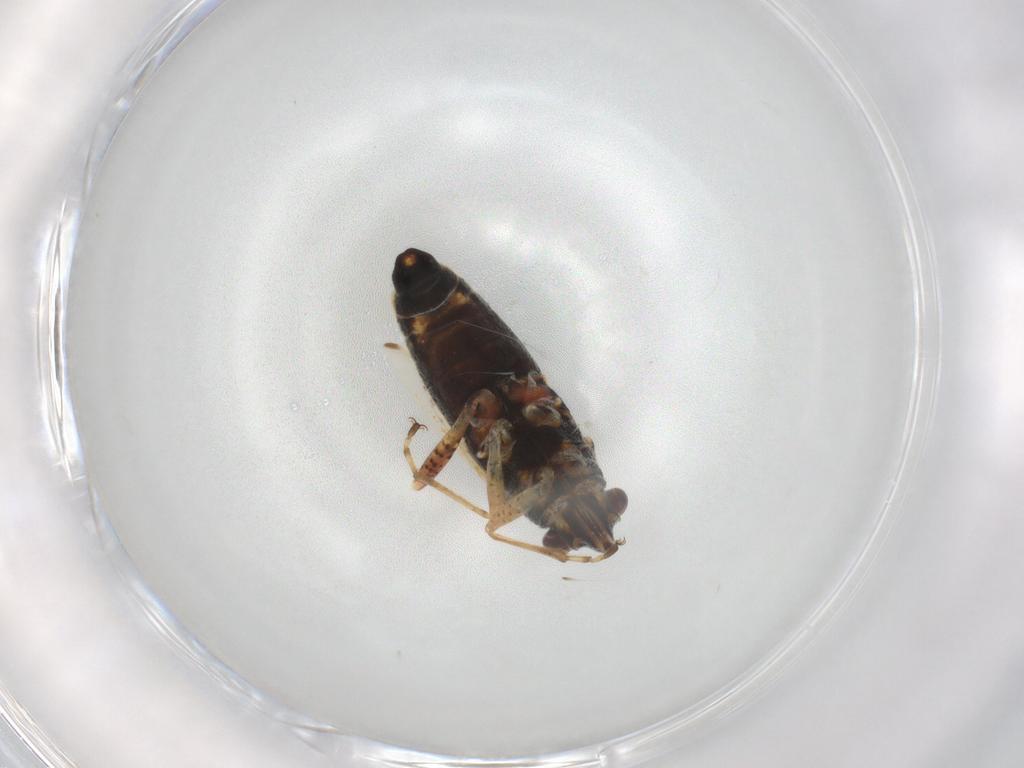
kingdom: Animalia
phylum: Arthropoda
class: Insecta
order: Hemiptera
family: Lygaeidae
